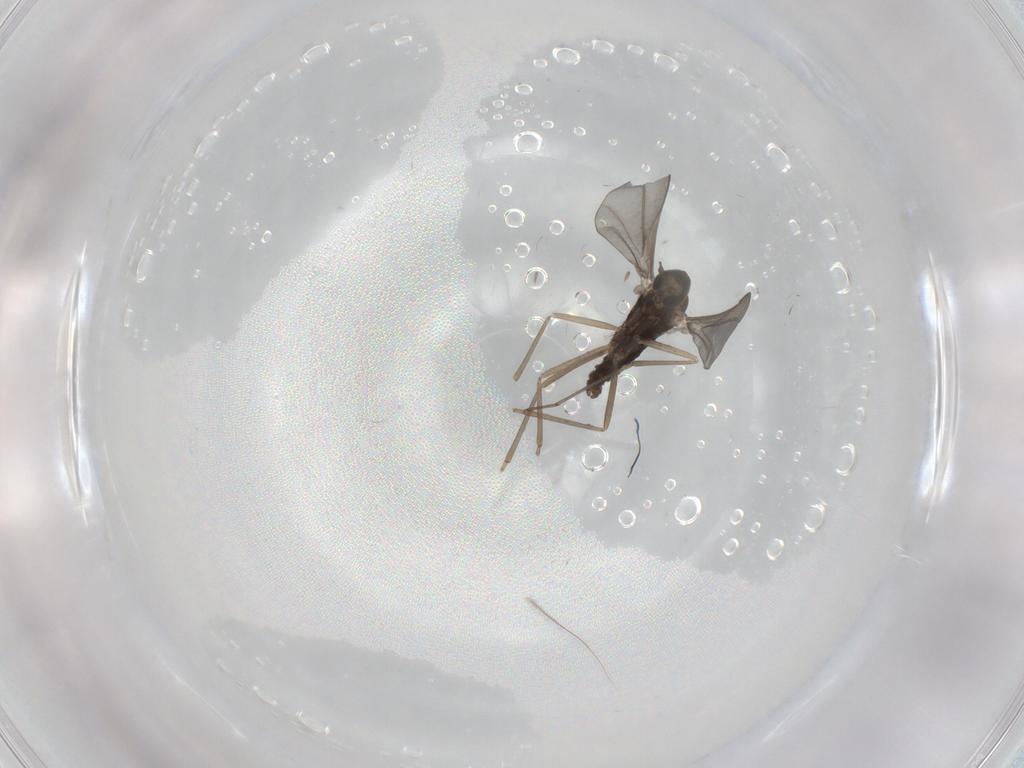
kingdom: Animalia
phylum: Arthropoda
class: Insecta
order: Diptera
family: Cecidomyiidae
